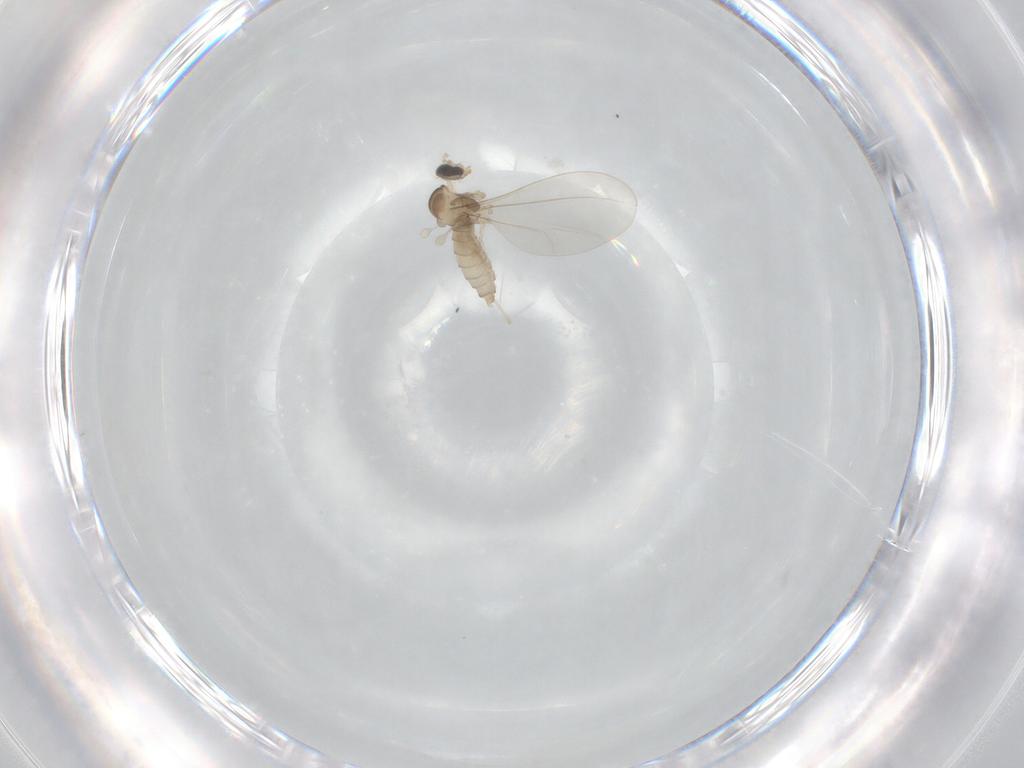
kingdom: Animalia
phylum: Arthropoda
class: Insecta
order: Diptera
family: Cecidomyiidae
